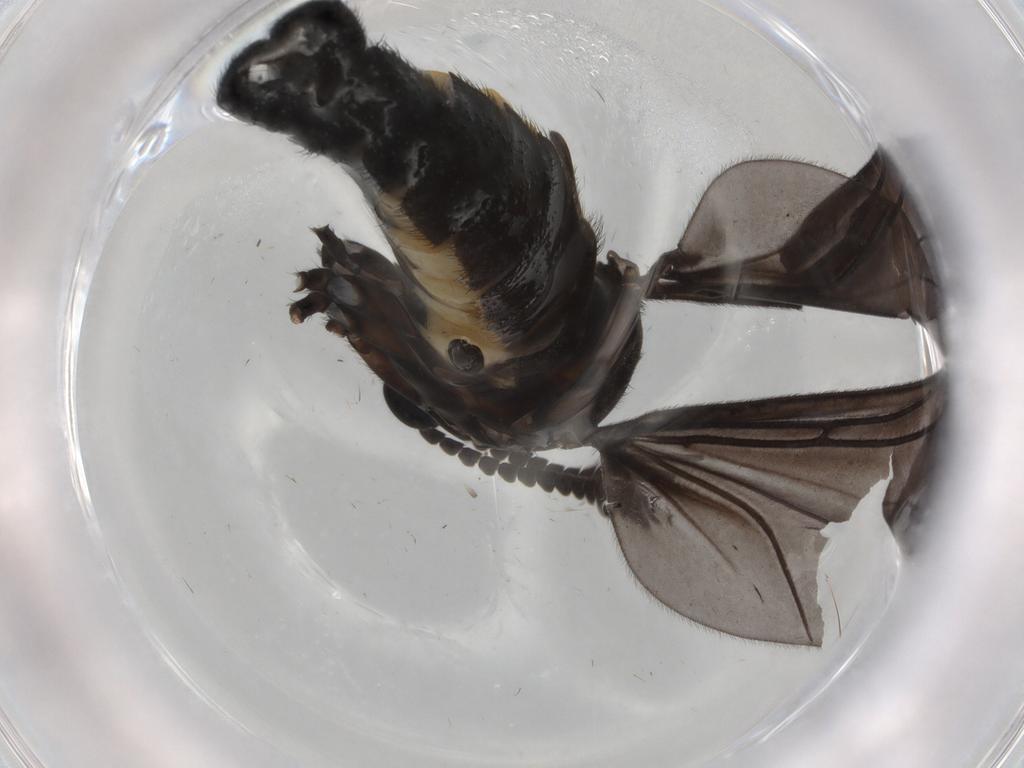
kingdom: Animalia
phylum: Arthropoda
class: Insecta
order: Diptera
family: Sciaridae
